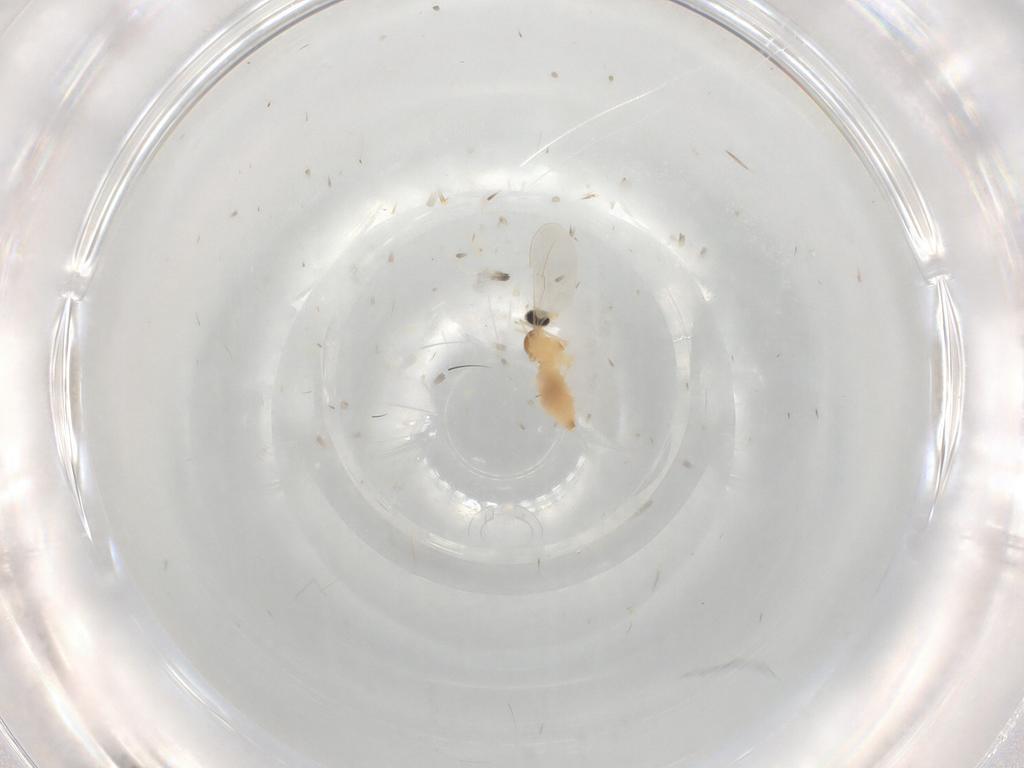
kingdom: Animalia
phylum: Arthropoda
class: Insecta
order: Diptera
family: Cecidomyiidae
